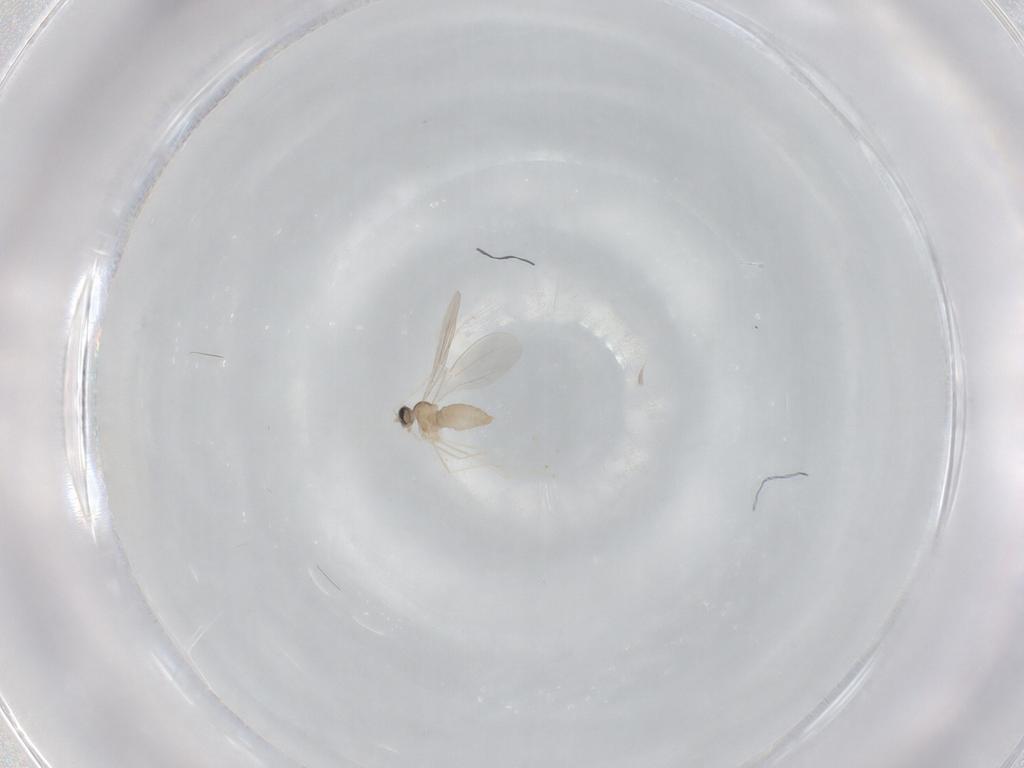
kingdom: Animalia
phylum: Arthropoda
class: Insecta
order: Diptera
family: Cecidomyiidae
